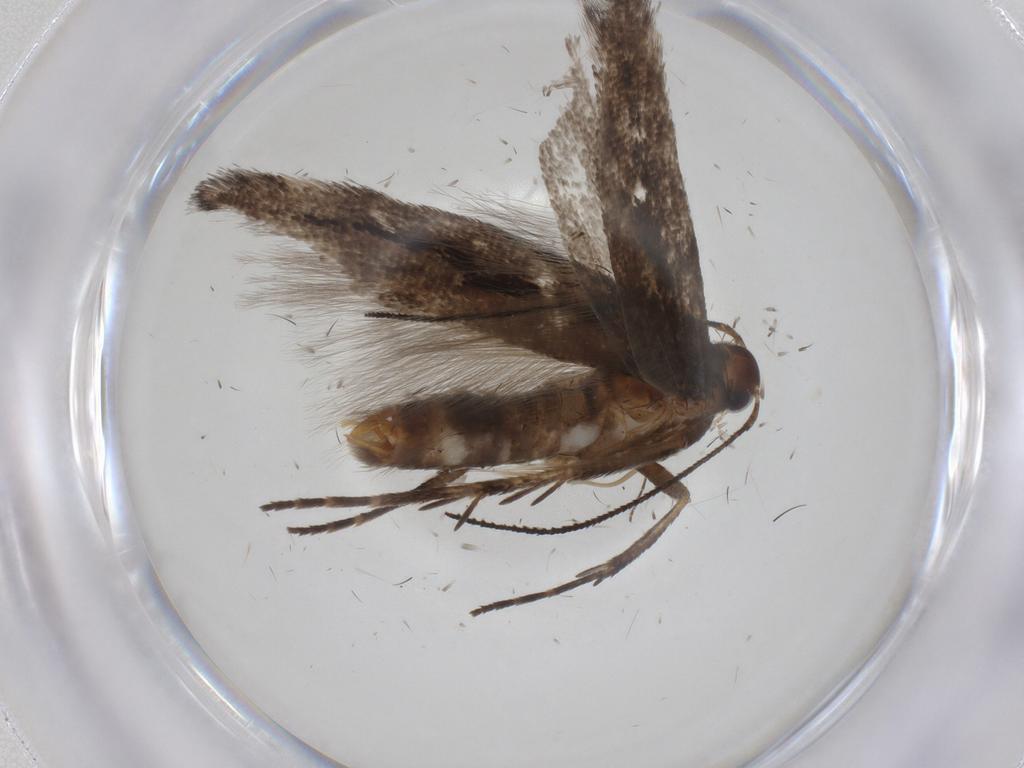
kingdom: Animalia
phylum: Arthropoda
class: Insecta
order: Lepidoptera
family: Gelechiidae
